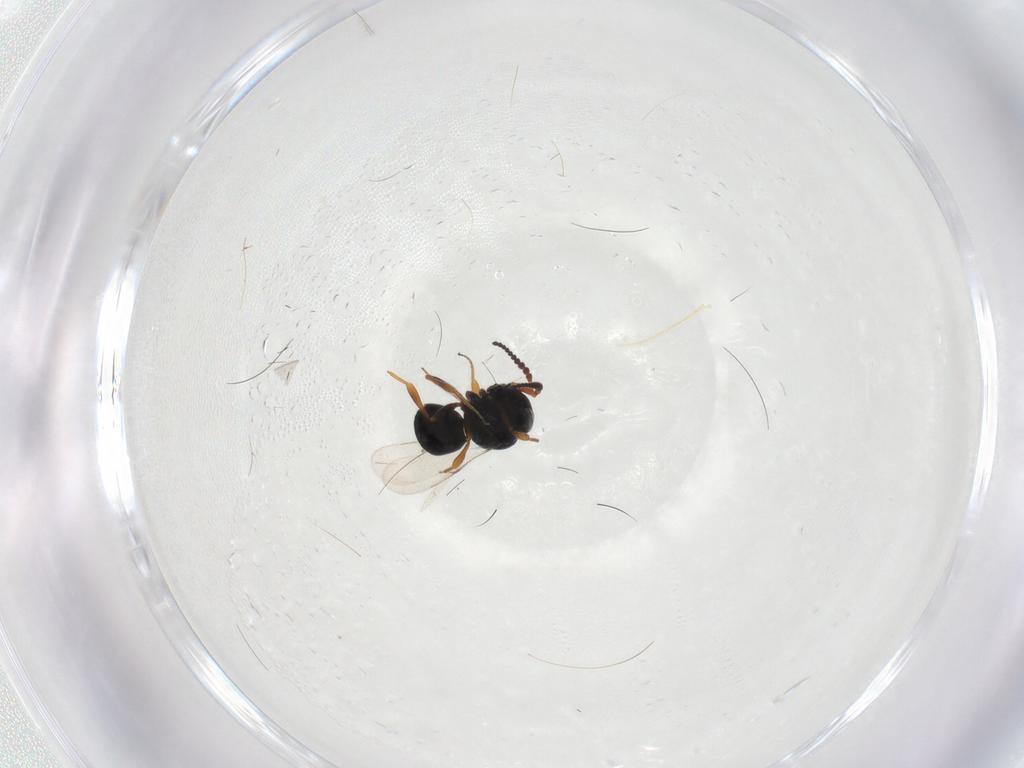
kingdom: Animalia
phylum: Arthropoda
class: Insecta
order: Hymenoptera
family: Scelionidae
